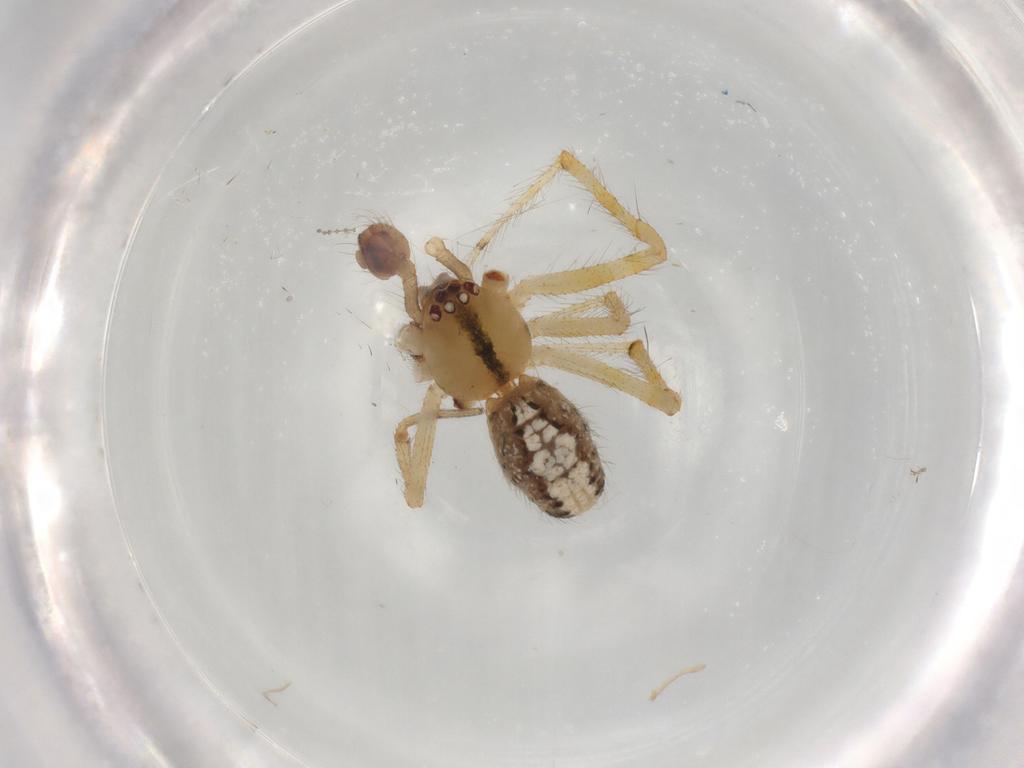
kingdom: Animalia
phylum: Arthropoda
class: Arachnida
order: Araneae
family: Theridiidae
